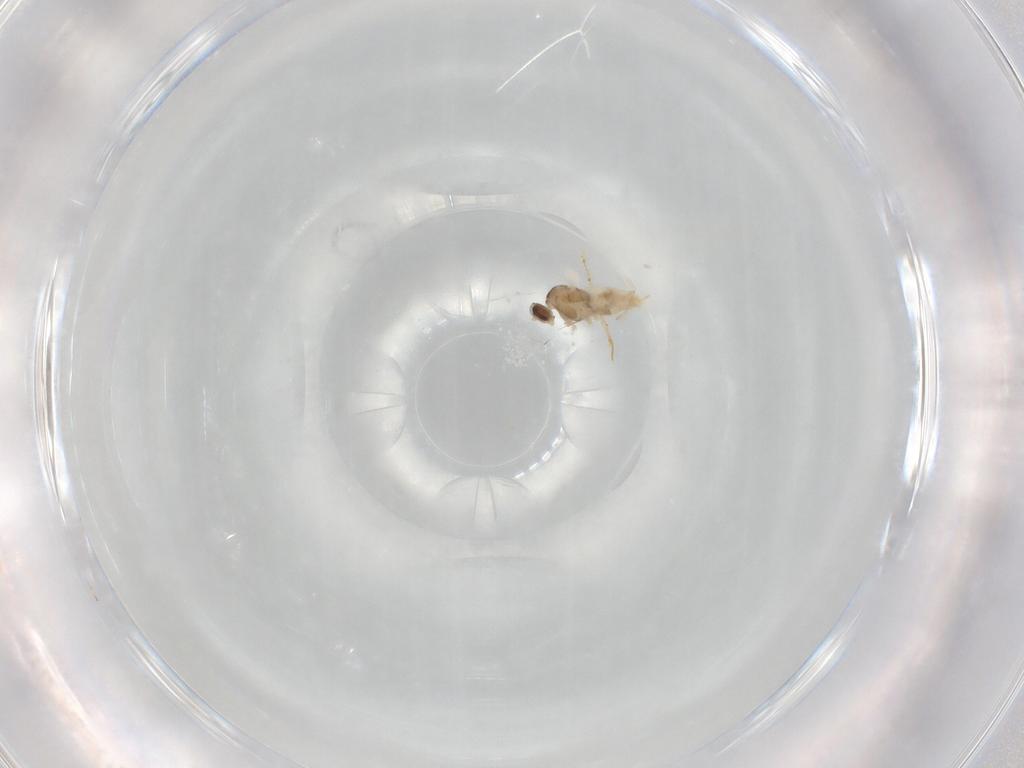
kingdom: Animalia
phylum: Arthropoda
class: Insecta
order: Diptera
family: Cecidomyiidae
